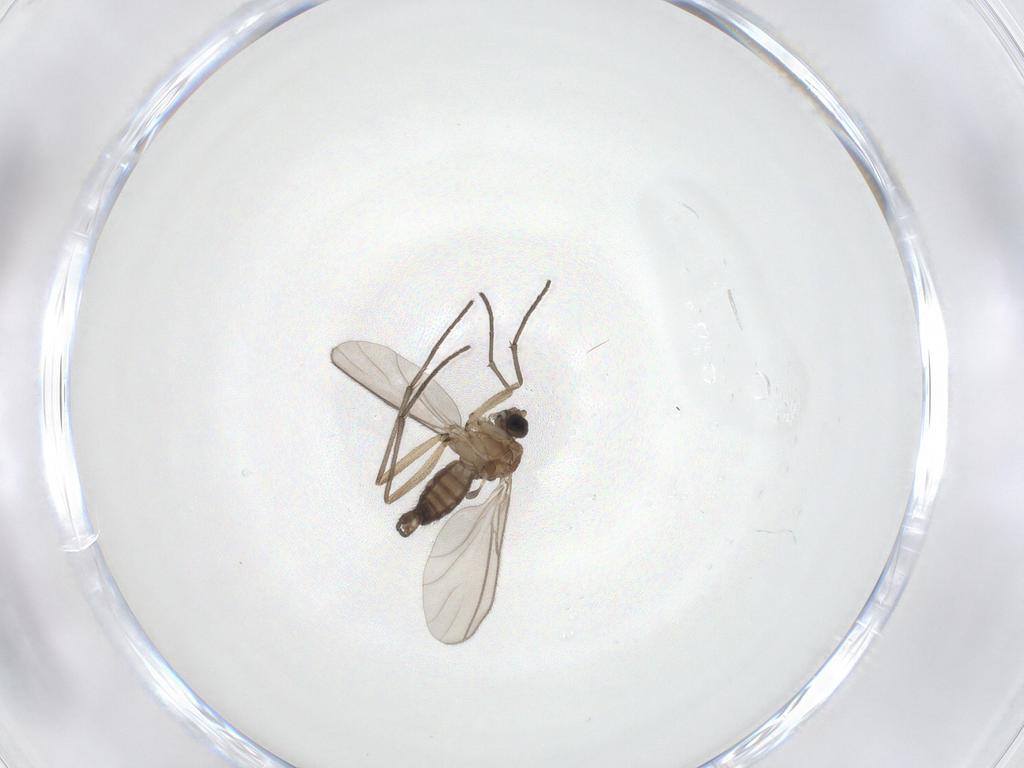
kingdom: Animalia
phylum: Arthropoda
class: Insecta
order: Diptera
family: Sciaridae
